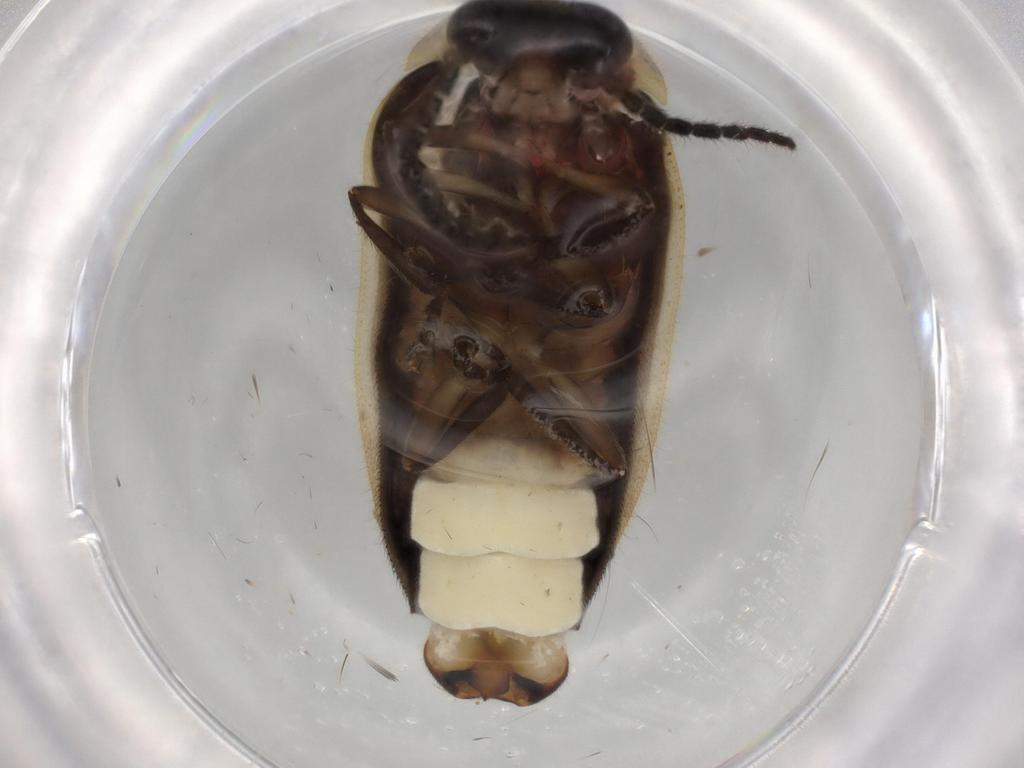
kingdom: Animalia
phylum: Arthropoda
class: Insecta
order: Coleoptera
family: Lampyridae
